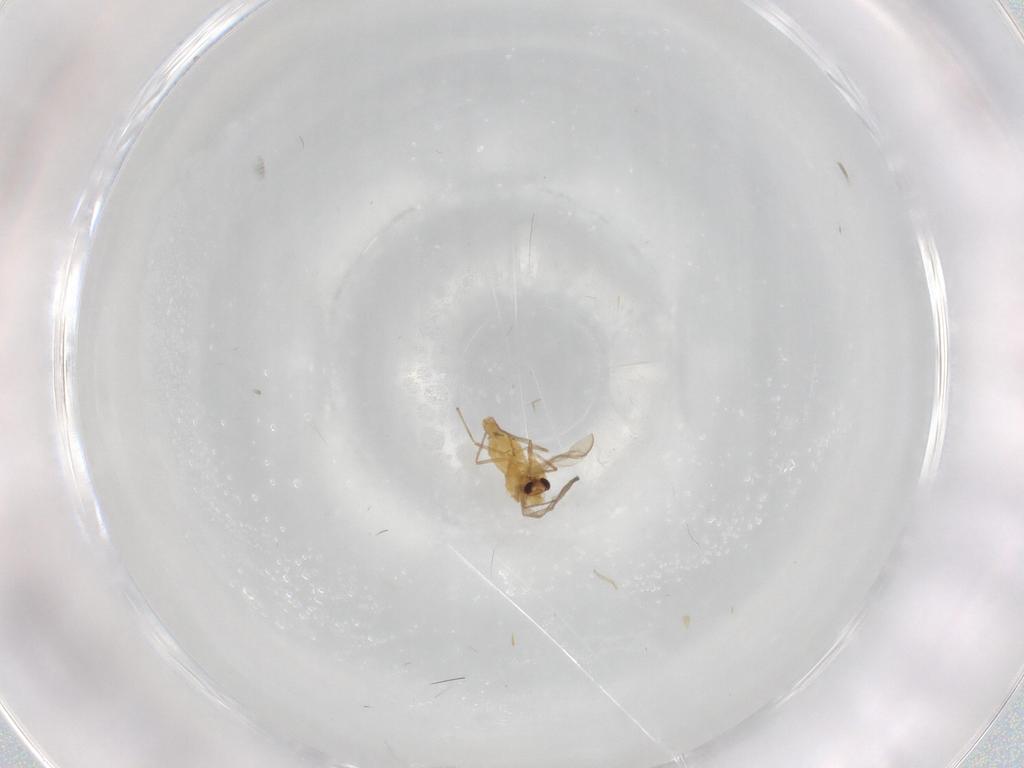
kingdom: Animalia
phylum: Arthropoda
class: Insecta
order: Diptera
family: Chironomidae
